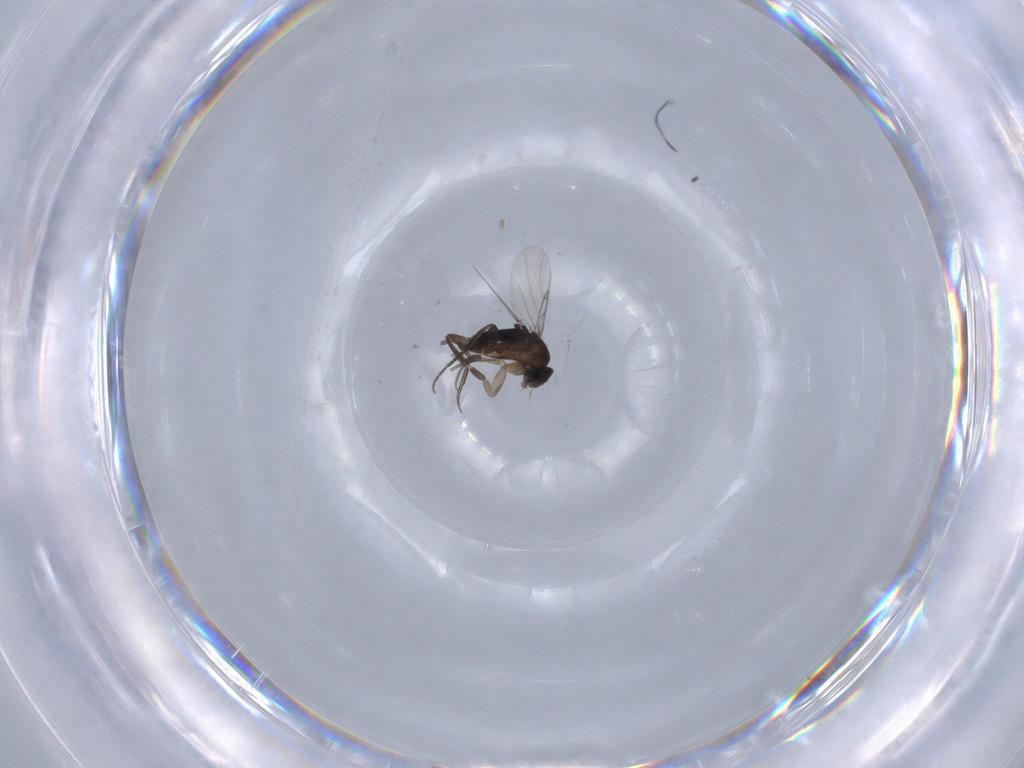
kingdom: Animalia
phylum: Arthropoda
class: Insecta
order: Diptera
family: Phoridae
